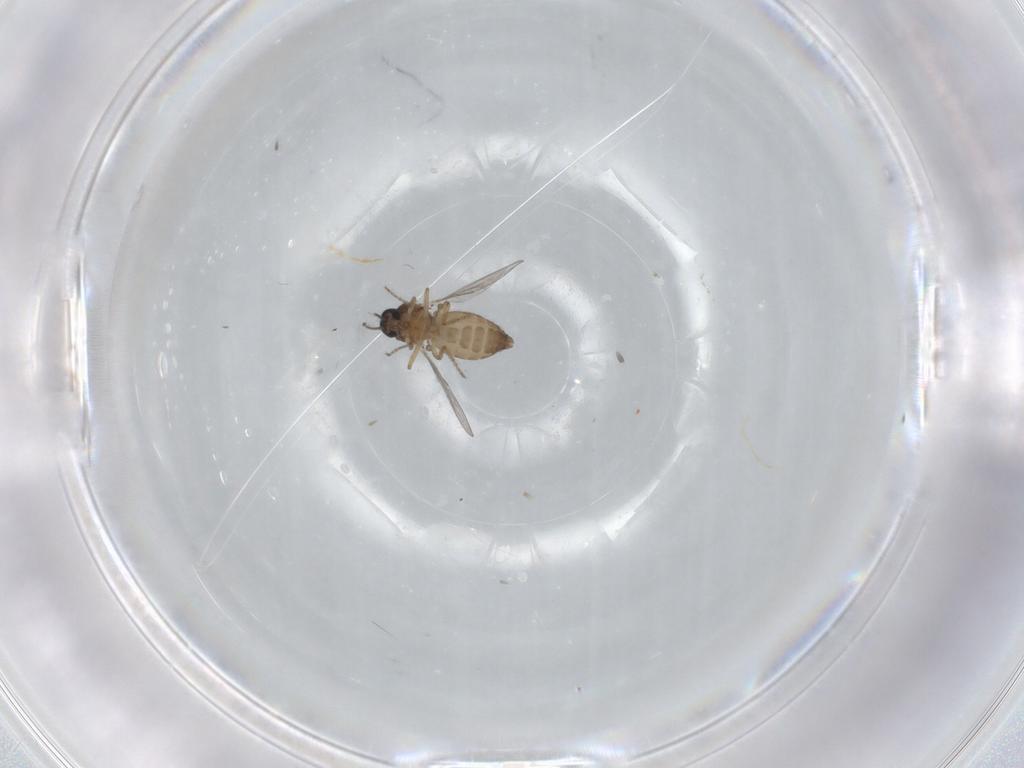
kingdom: Animalia
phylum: Arthropoda
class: Insecta
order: Diptera
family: Ceratopogonidae
